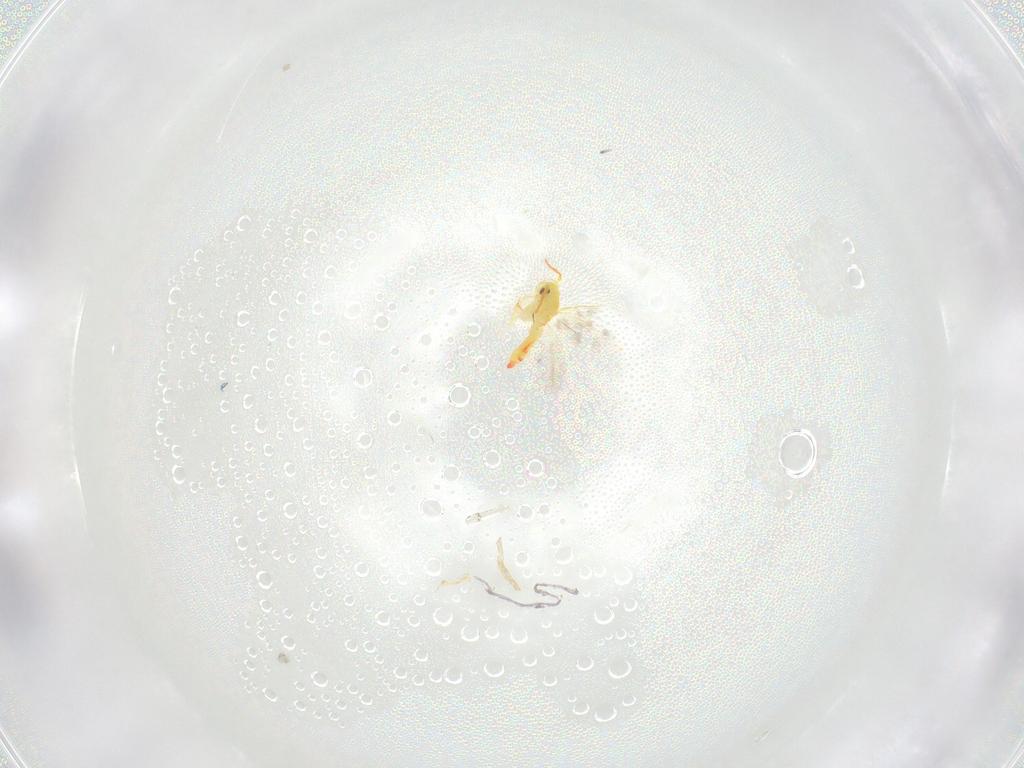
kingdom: Animalia
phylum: Arthropoda
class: Insecta
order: Hemiptera
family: Aleyrodidae
